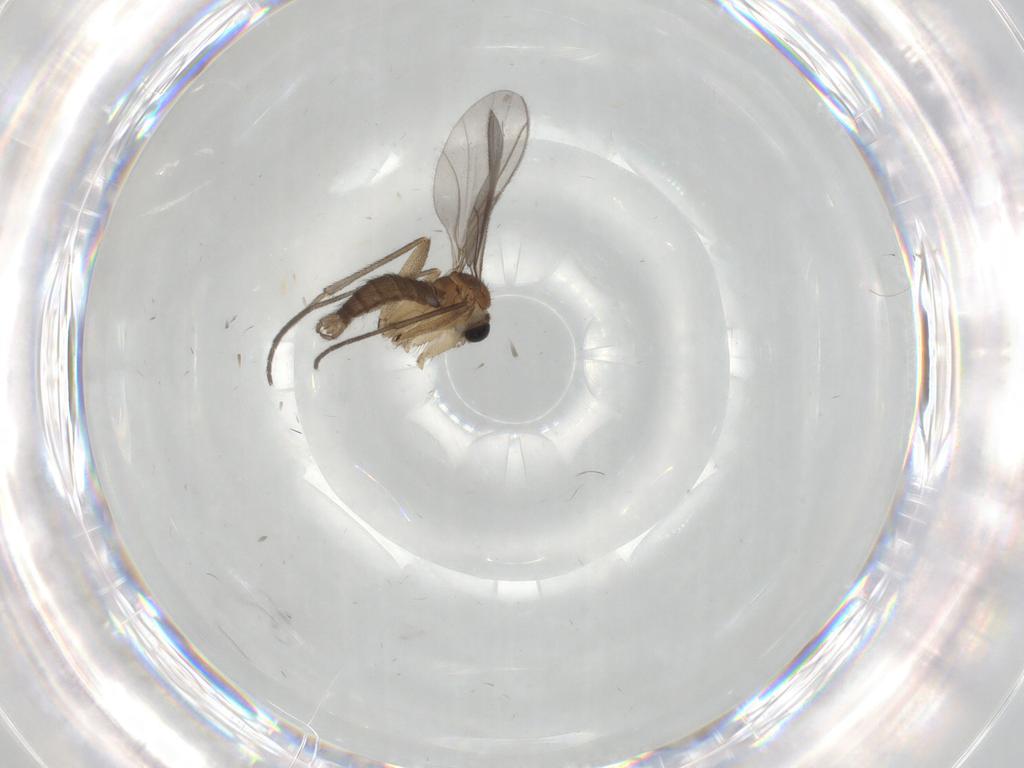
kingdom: Animalia
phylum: Arthropoda
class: Insecta
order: Diptera
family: Sciaridae
